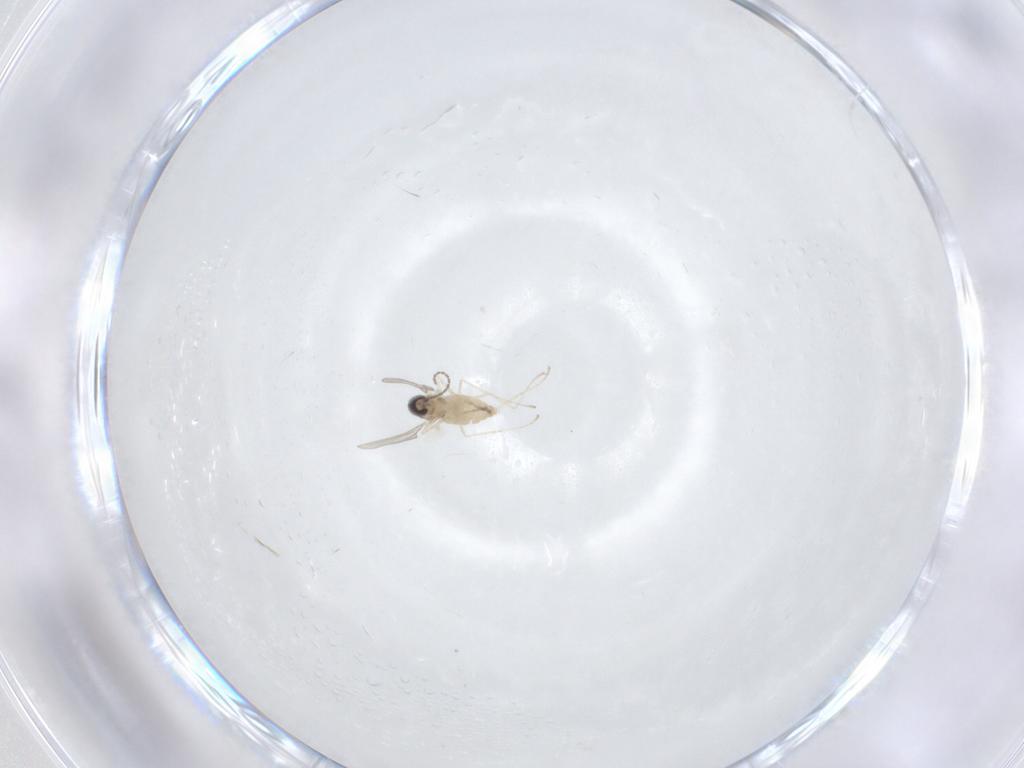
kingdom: Animalia
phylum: Arthropoda
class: Insecta
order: Diptera
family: Cecidomyiidae
